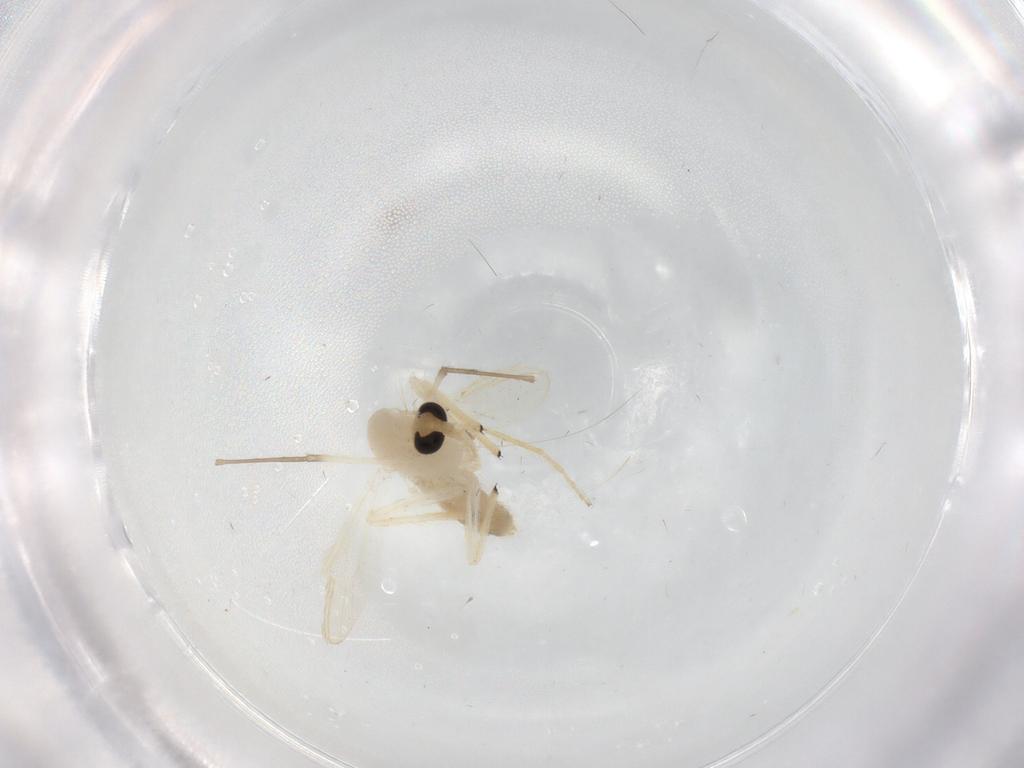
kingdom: Animalia
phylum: Arthropoda
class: Insecta
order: Diptera
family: Chironomidae
